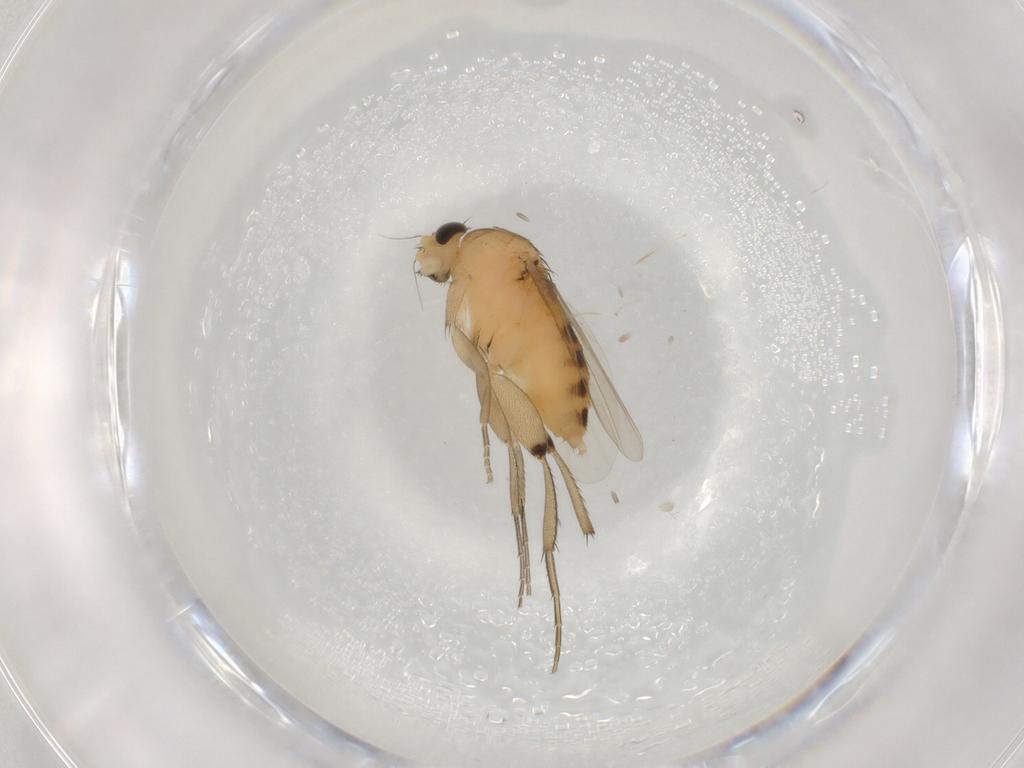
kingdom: Animalia
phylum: Arthropoda
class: Insecta
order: Diptera
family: Phoridae
